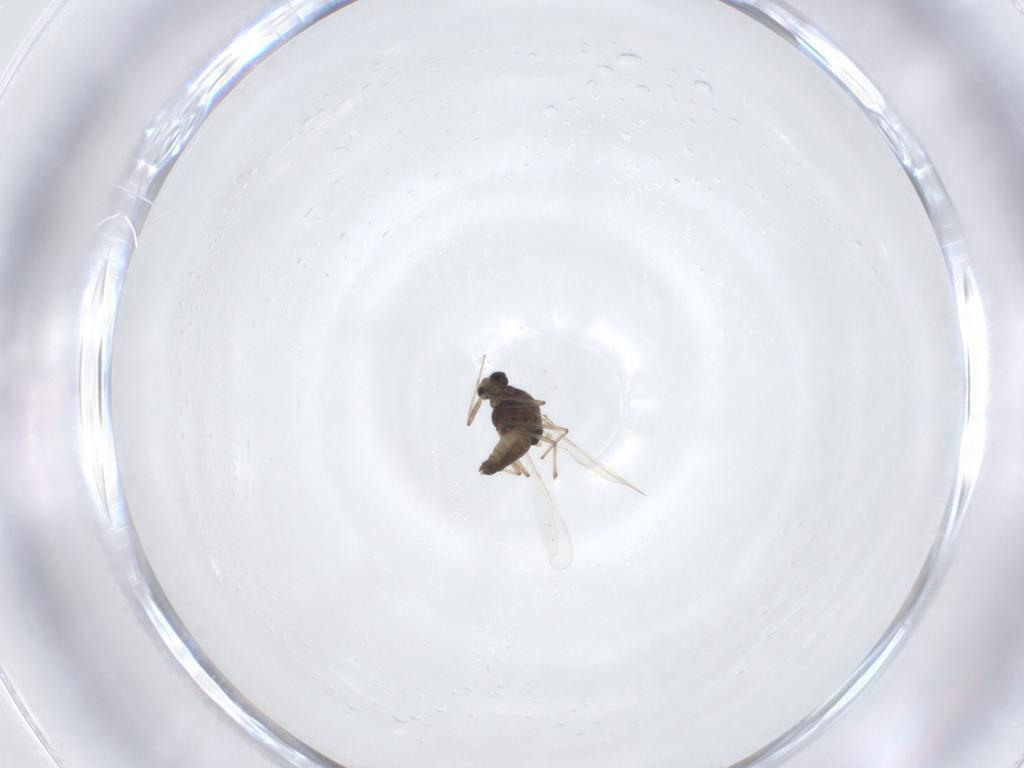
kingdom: Animalia
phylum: Arthropoda
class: Insecta
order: Diptera
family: Chironomidae
